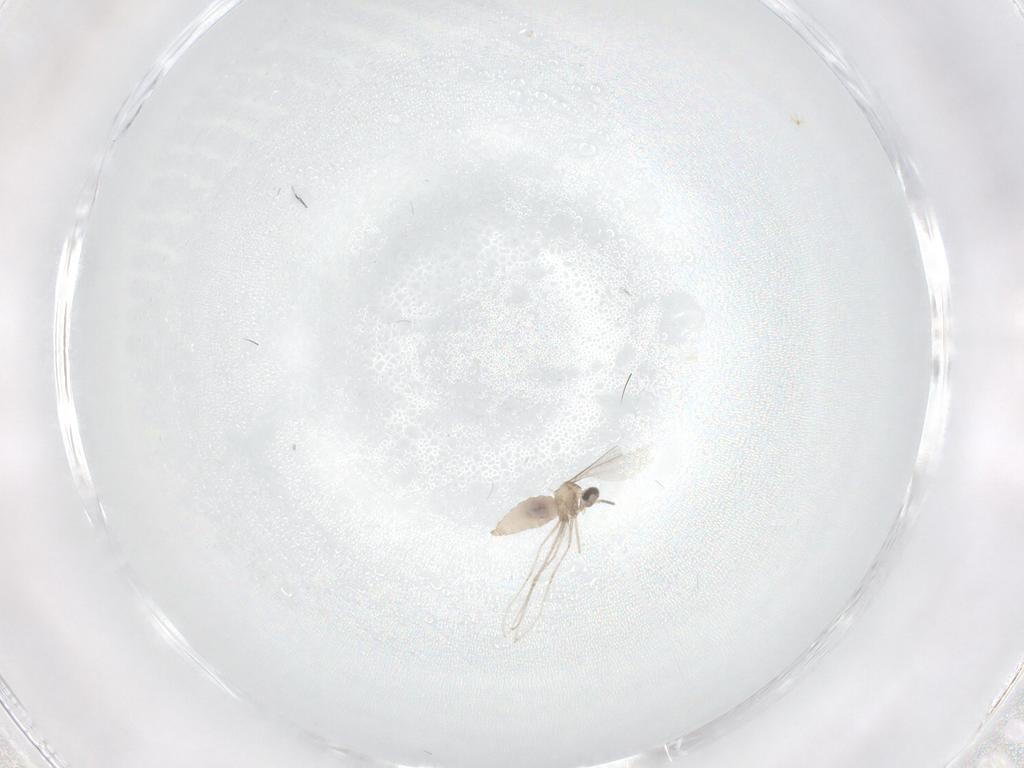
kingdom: Animalia
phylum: Arthropoda
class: Insecta
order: Diptera
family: Cecidomyiidae
